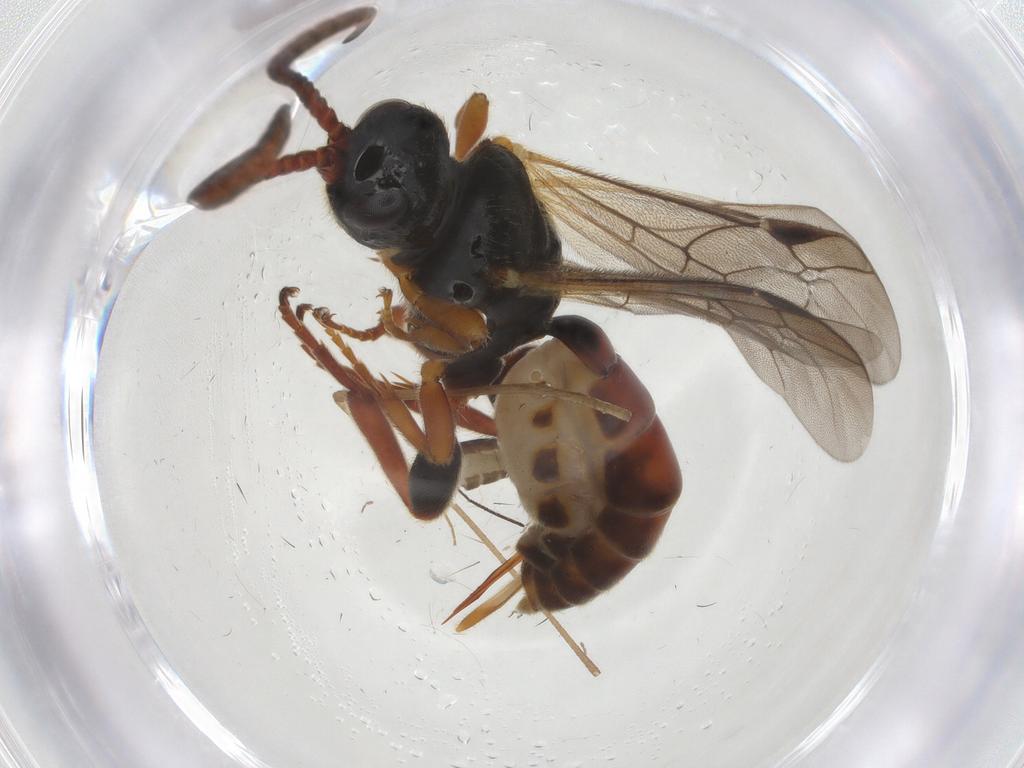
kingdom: Animalia
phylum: Arthropoda
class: Insecta
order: Hymenoptera
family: Ichneumonidae
